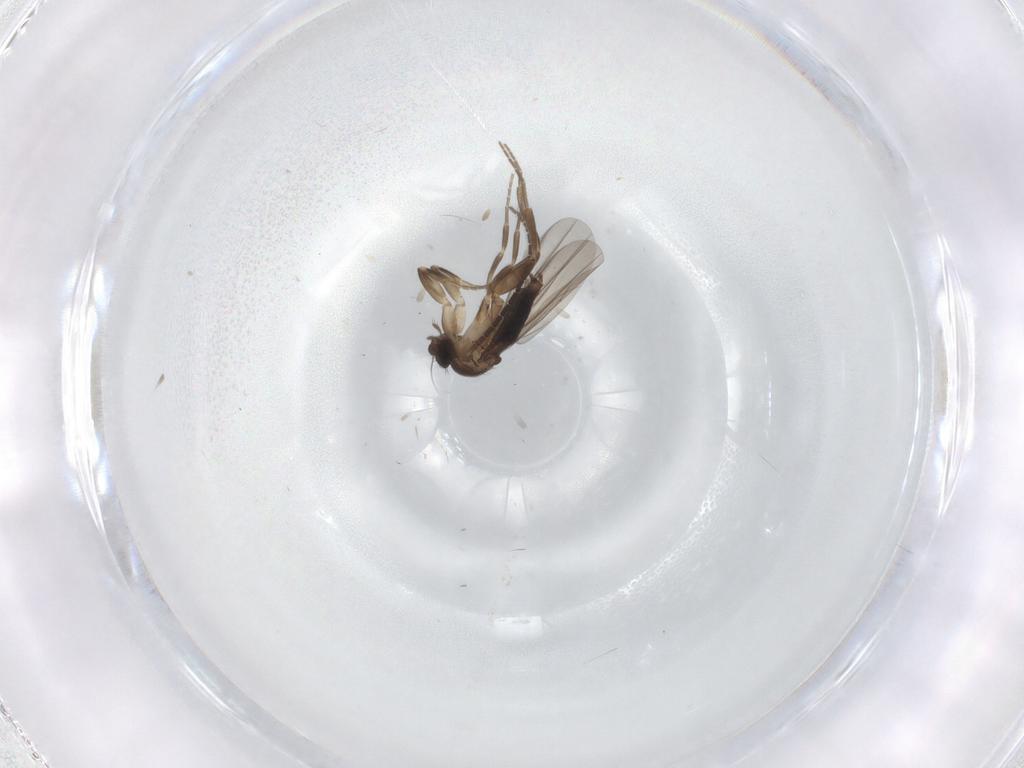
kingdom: Animalia
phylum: Arthropoda
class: Insecta
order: Diptera
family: Cecidomyiidae
